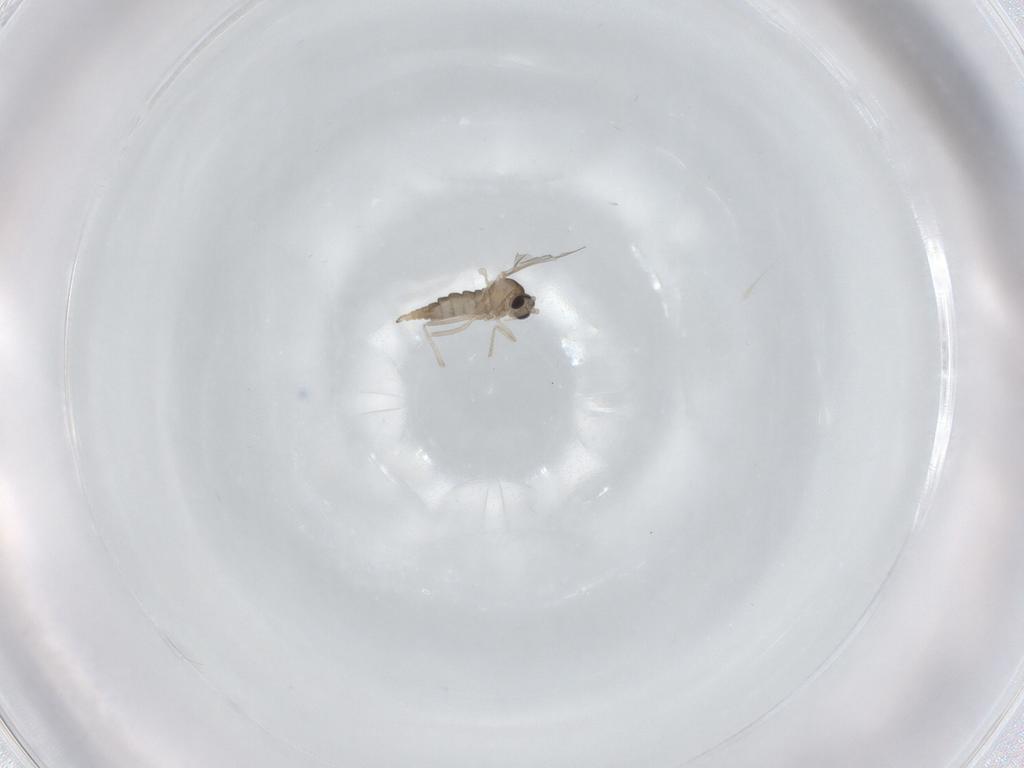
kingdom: Animalia
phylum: Arthropoda
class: Insecta
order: Diptera
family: Cecidomyiidae
